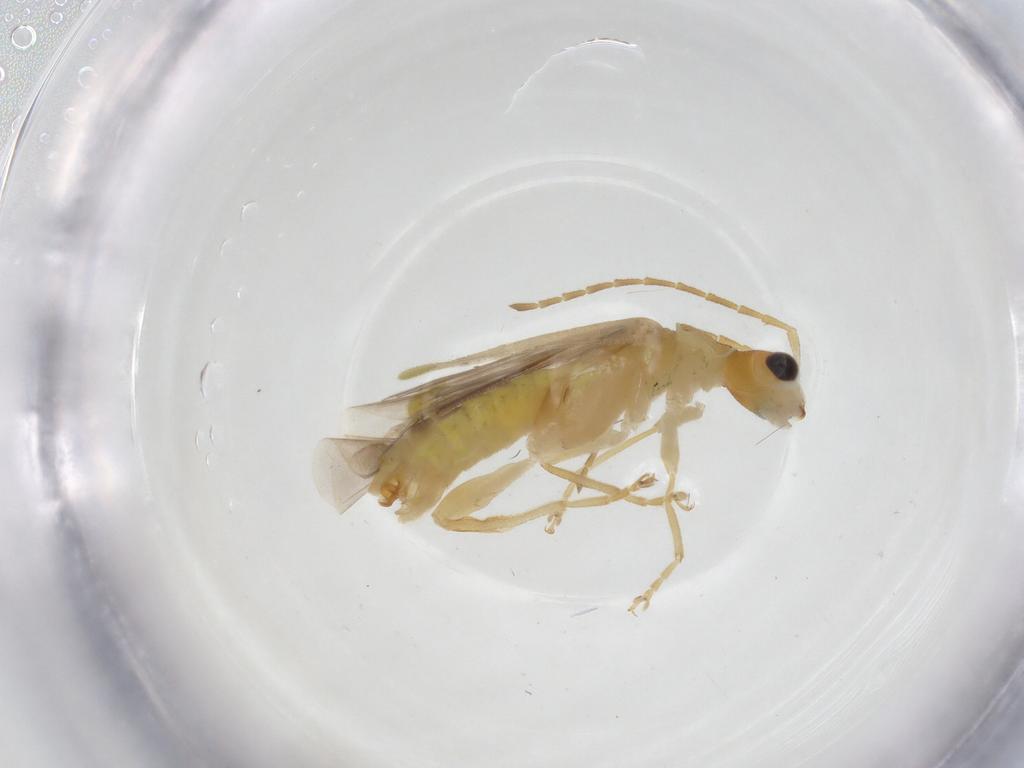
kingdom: Animalia
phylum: Arthropoda
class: Insecta
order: Coleoptera
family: Cantharidae
